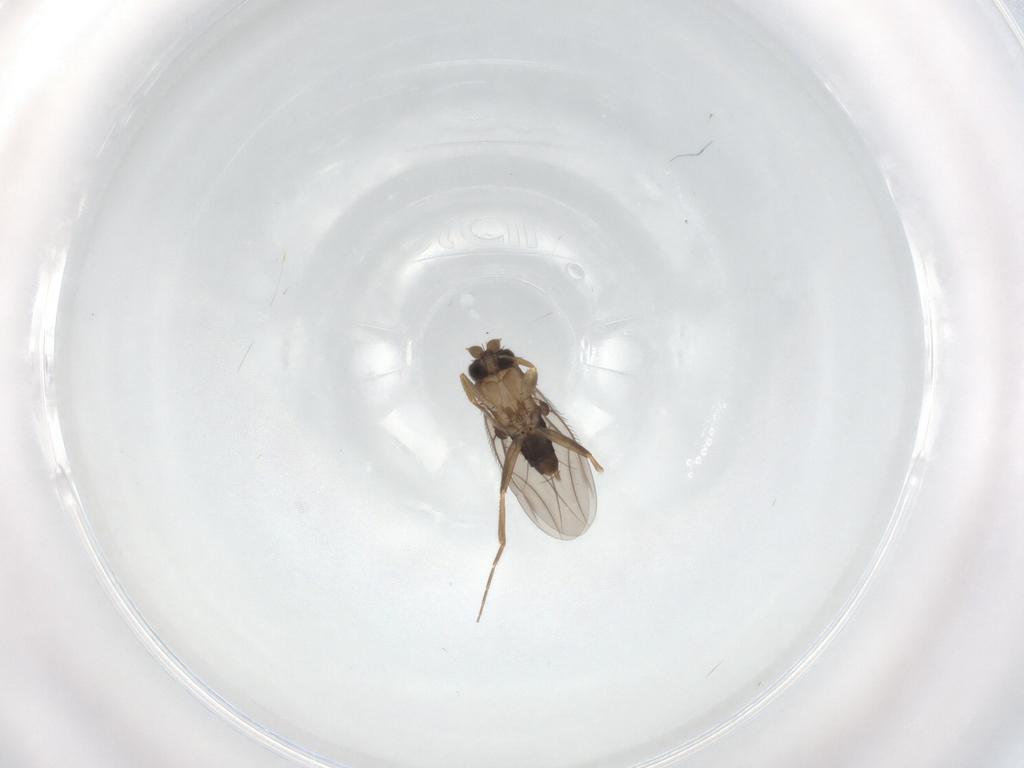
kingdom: Animalia
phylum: Arthropoda
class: Insecta
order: Diptera
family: Phoridae
